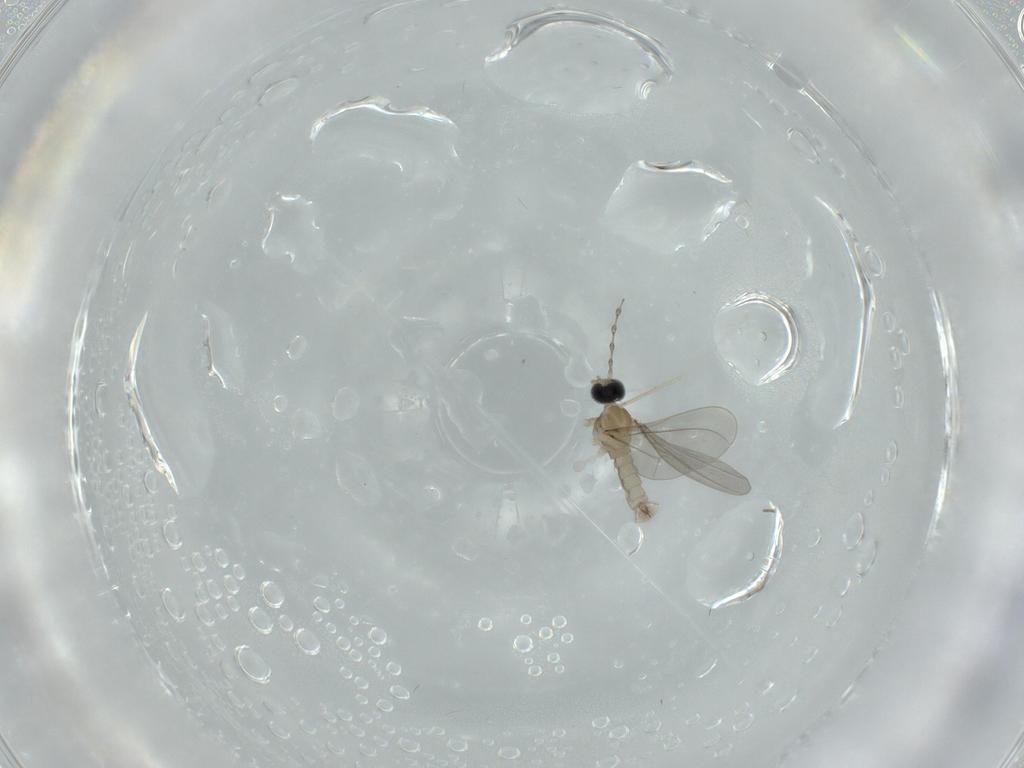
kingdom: Animalia
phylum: Arthropoda
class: Insecta
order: Diptera
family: Cecidomyiidae
